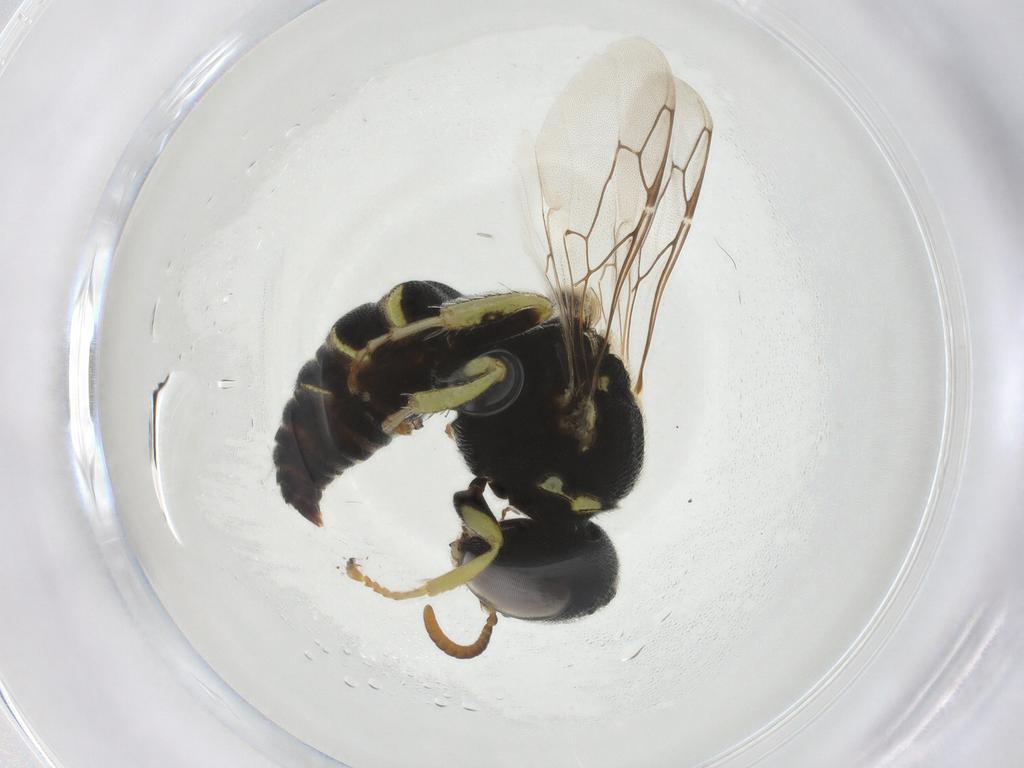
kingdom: Animalia
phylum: Arthropoda
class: Insecta
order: Hymenoptera
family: Crabronidae
